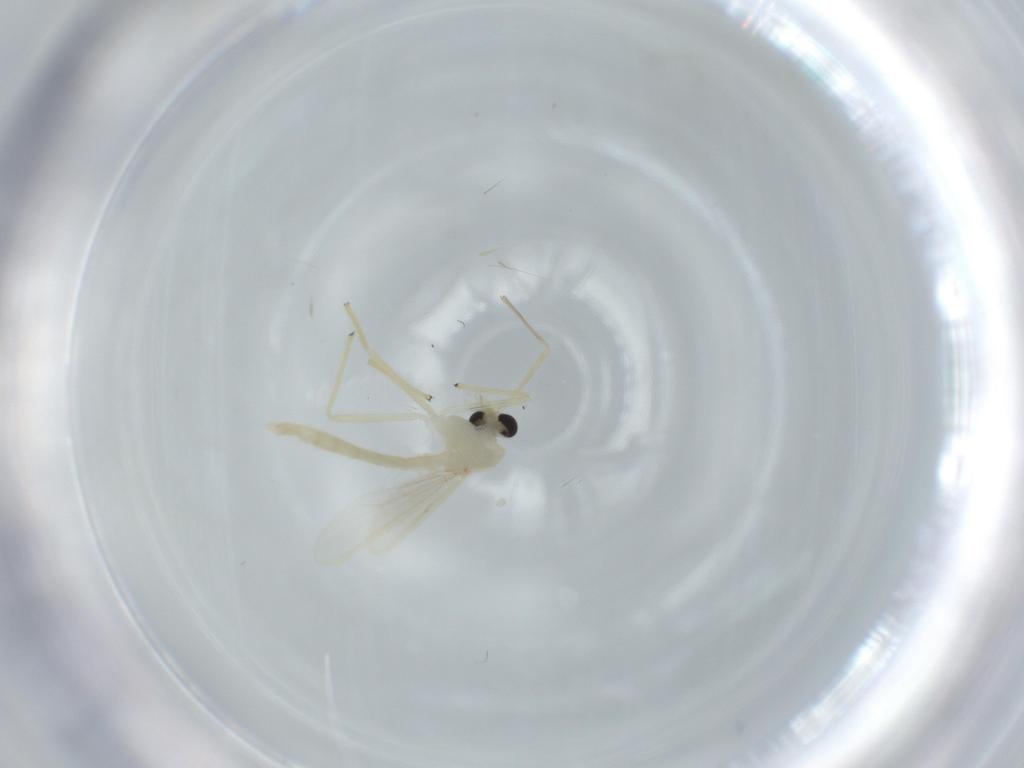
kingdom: Animalia
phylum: Arthropoda
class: Insecta
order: Diptera
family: Chironomidae
